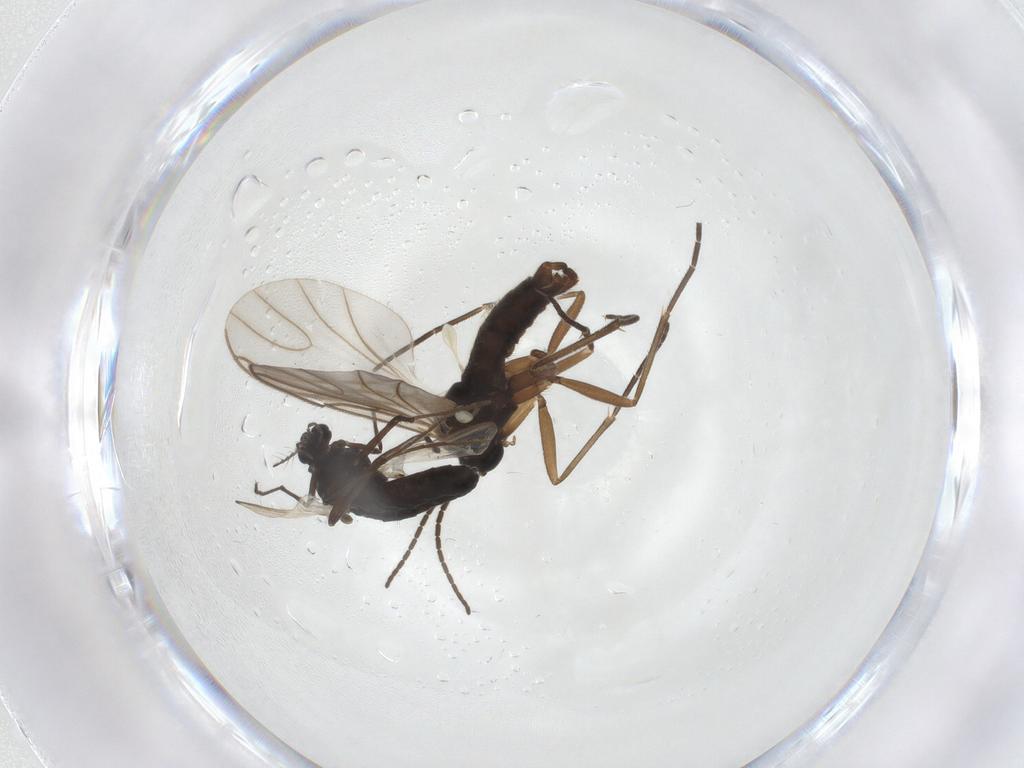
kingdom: Animalia
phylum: Arthropoda
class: Insecta
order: Diptera
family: Chironomidae
